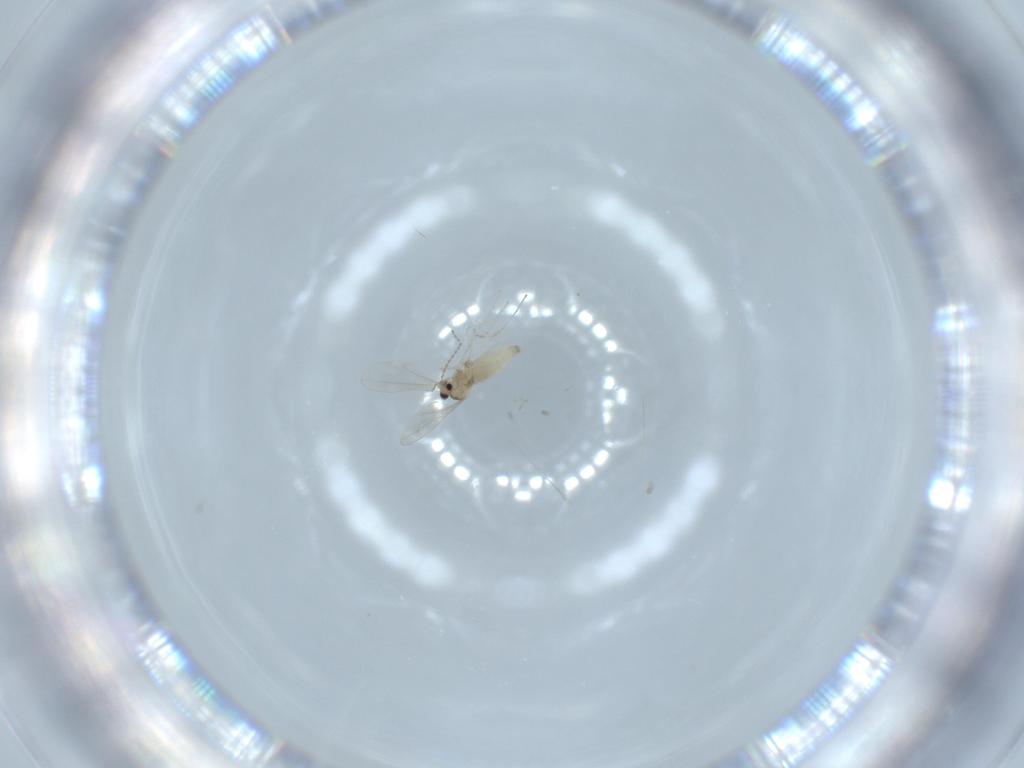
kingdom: Animalia
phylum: Arthropoda
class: Insecta
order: Diptera
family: Cecidomyiidae
